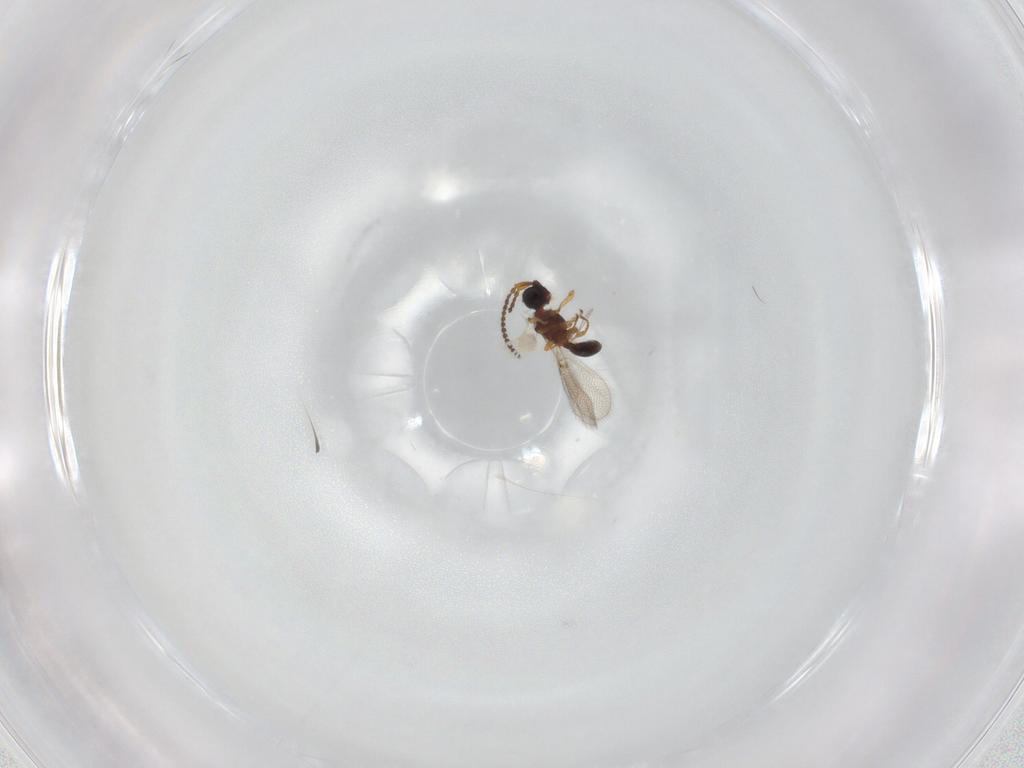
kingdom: Animalia
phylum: Arthropoda
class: Insecta
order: Hymenoptera
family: Diapriidae
